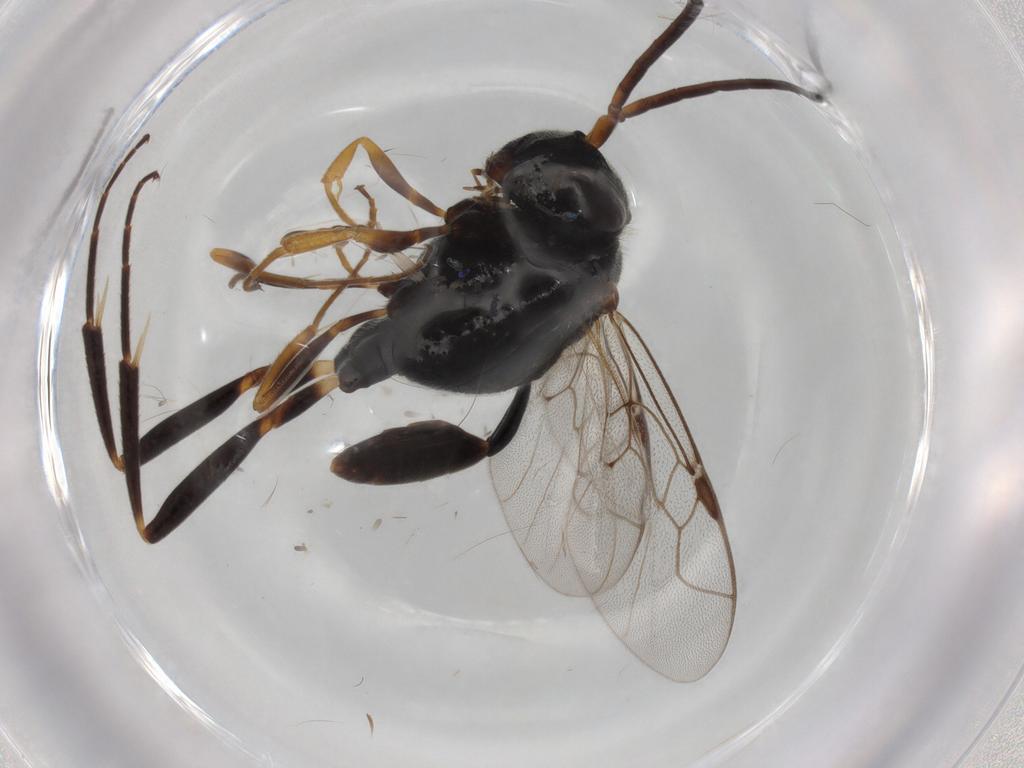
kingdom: Animalia
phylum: Arthropoda
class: Insecta
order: Hymenoptera
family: Evaniidae
